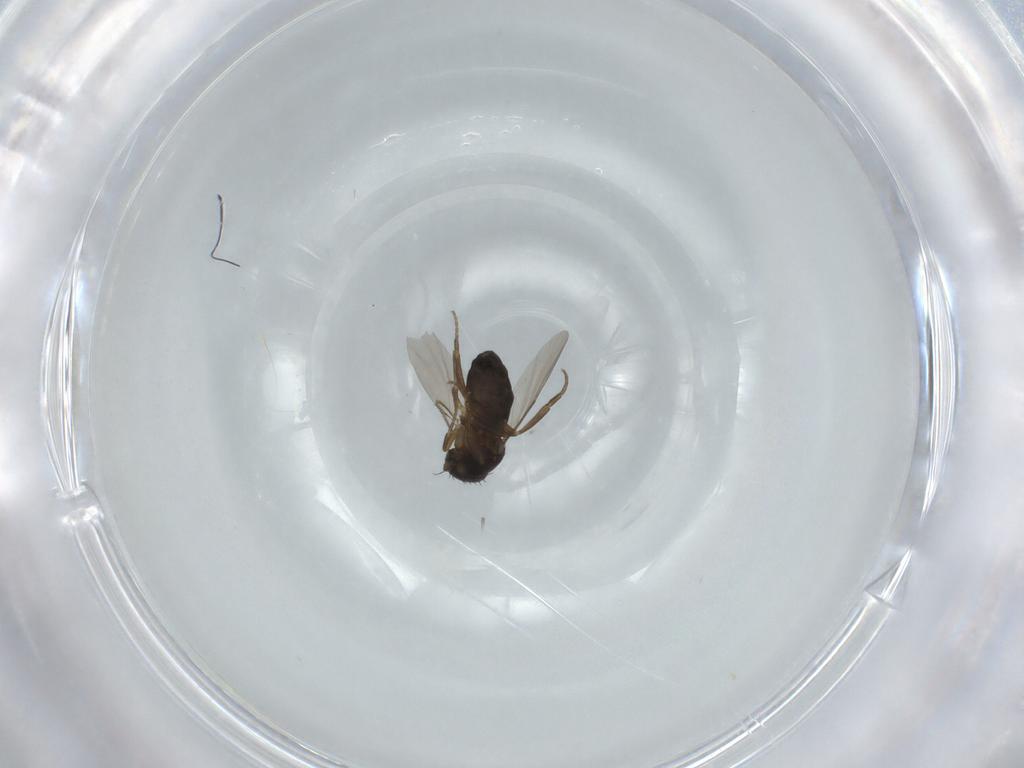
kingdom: Animalia
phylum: Arthropoda
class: Insecta
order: Diptera
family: Phoridae
